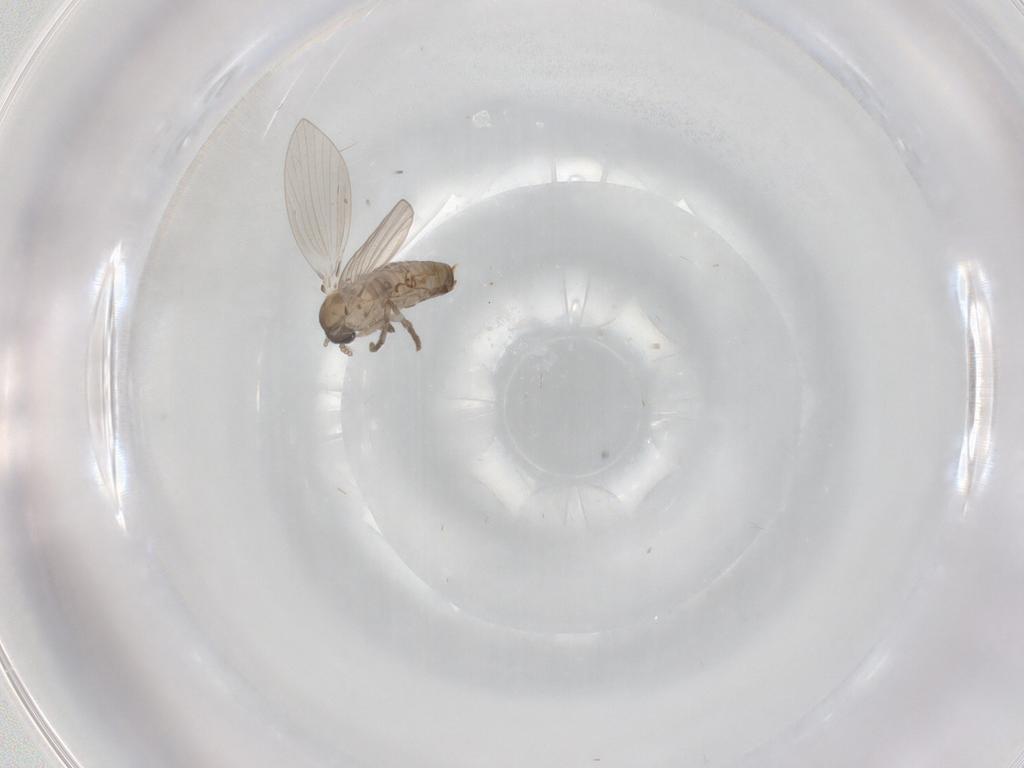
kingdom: Animalia
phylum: Arthropoda
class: Insecta
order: Diptera
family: Drosophilidae
